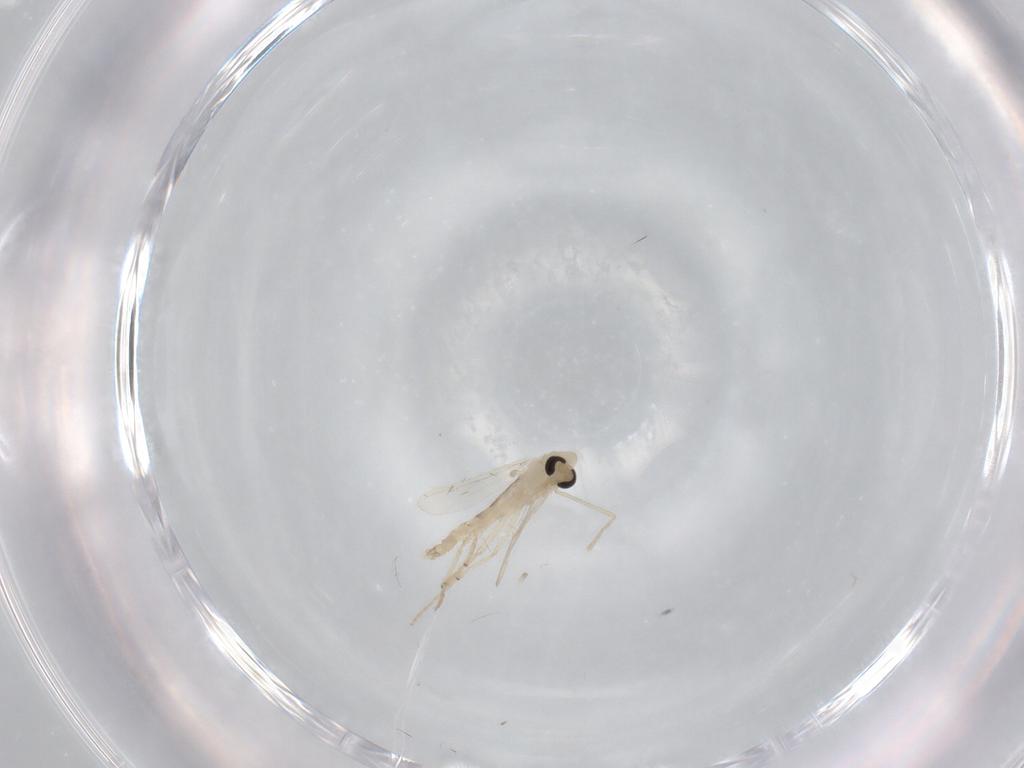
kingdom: Animalia
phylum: Arthropoda
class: Insecta
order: Diptera
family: Chironomidae
